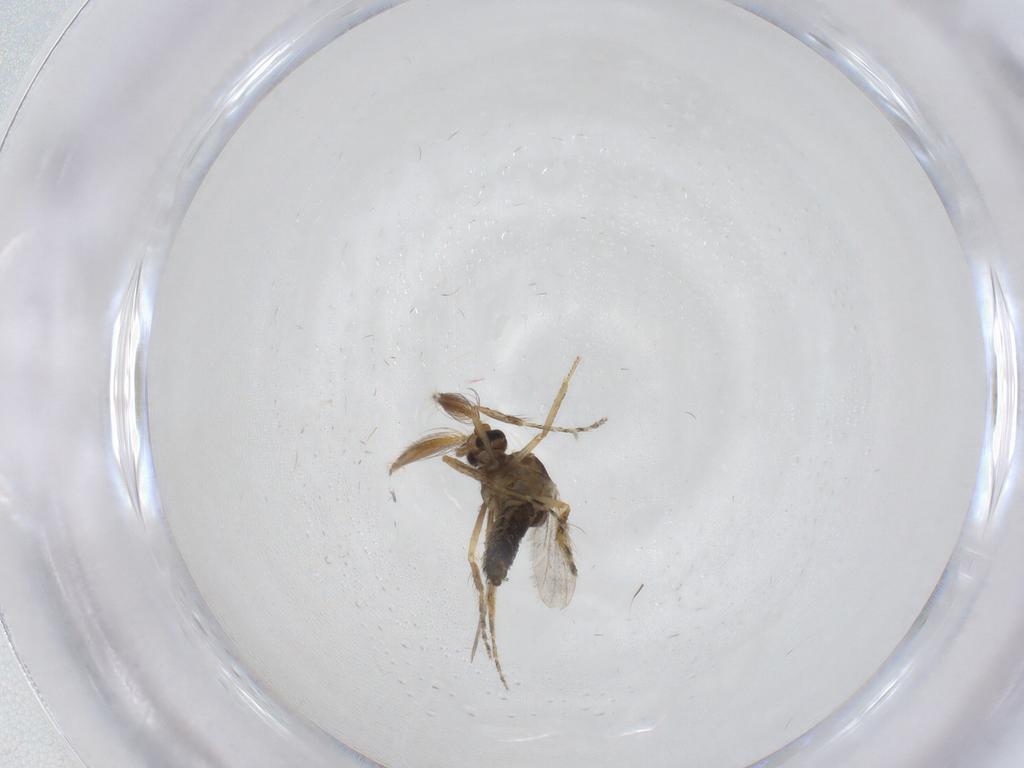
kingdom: Animalia
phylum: Arthropoda
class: Insecta
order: Diptera
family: Ceratopogonidae
